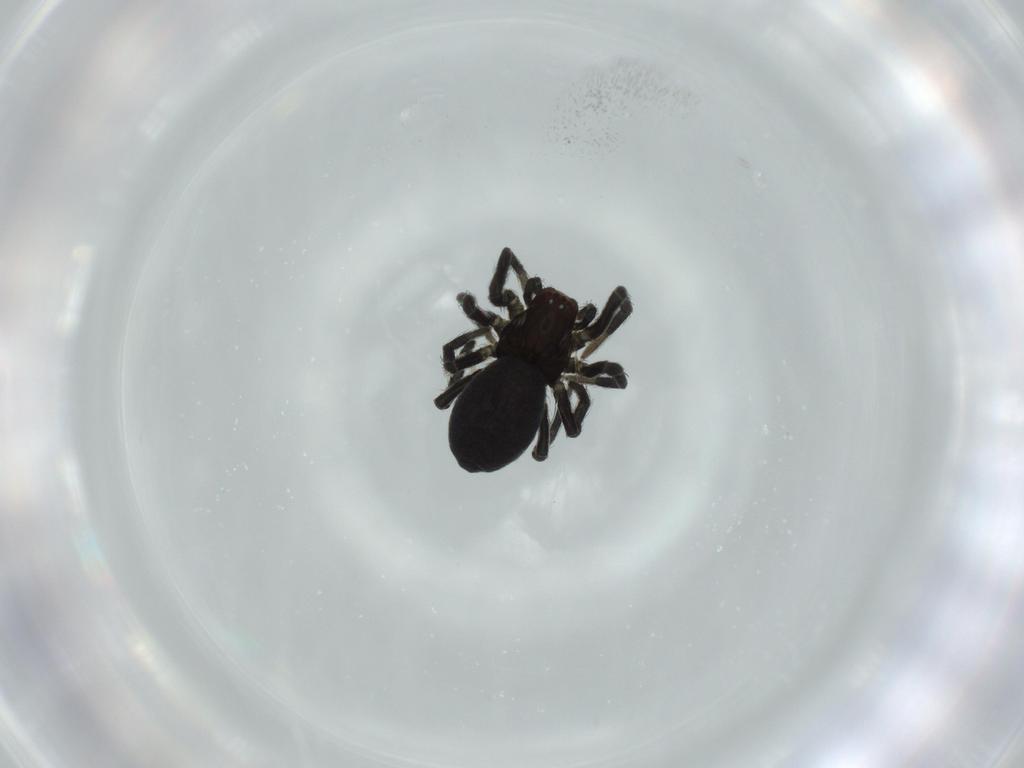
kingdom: Animalia
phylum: Arthropoda
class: Arachnida
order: Araneae
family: Dictynidae
